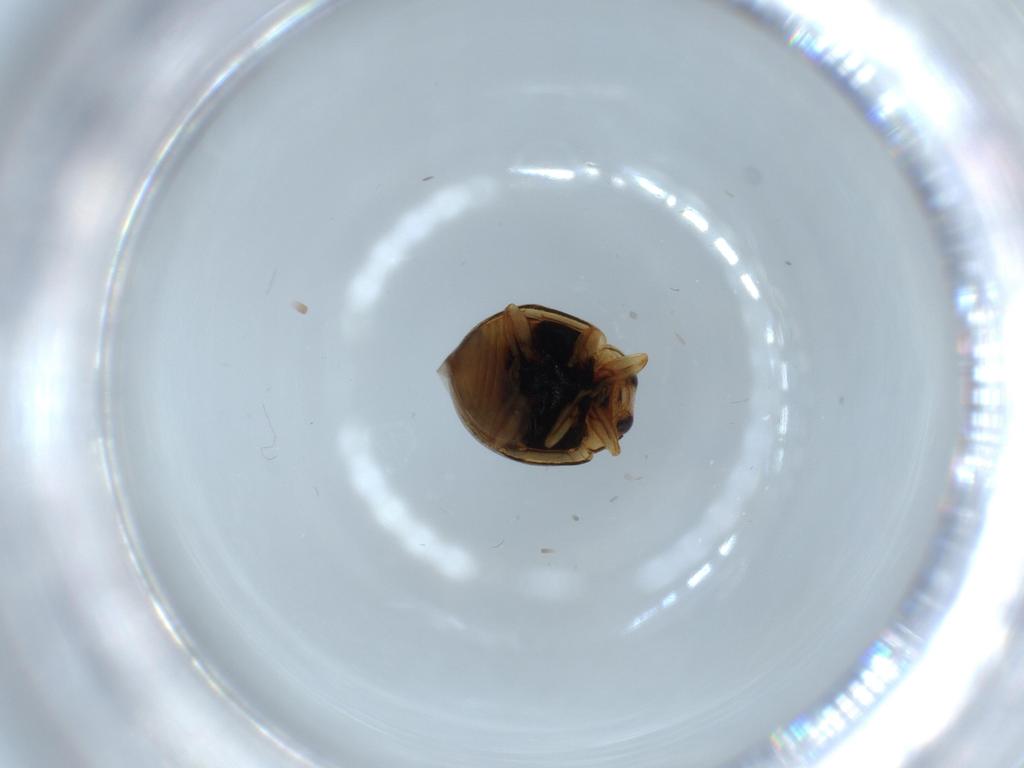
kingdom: Animalia
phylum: Arthropoda
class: Insecta
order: Coleoptera
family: Coccinellidae
